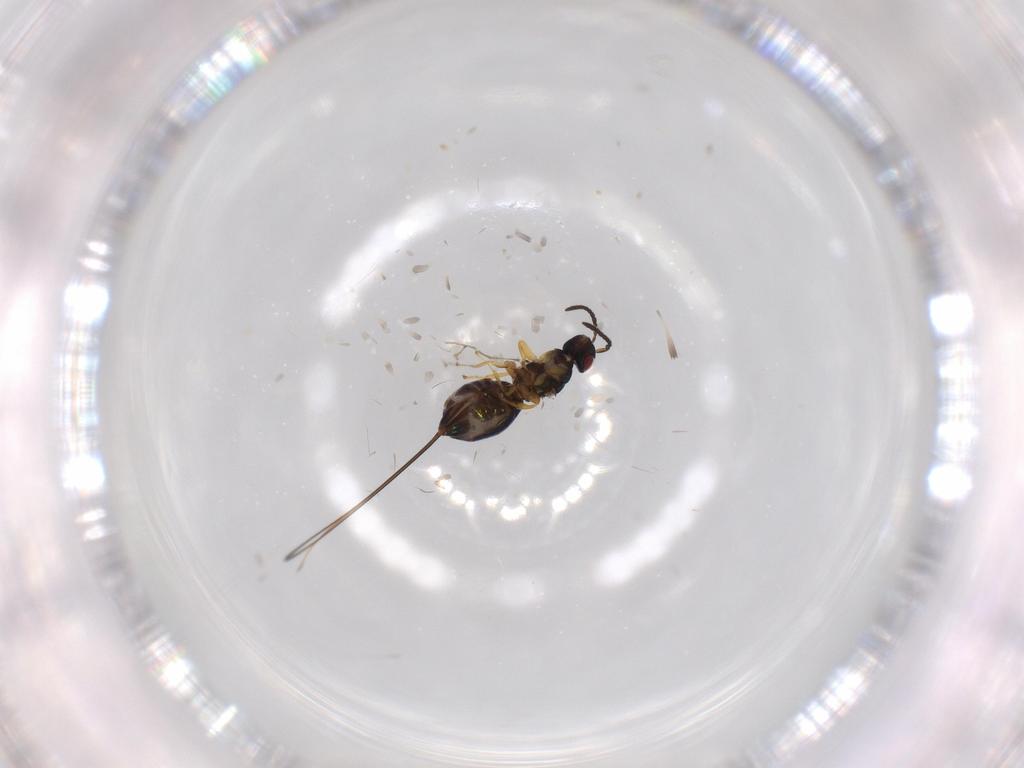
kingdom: Animalia
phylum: Arthropoda
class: Insecta
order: Hymenoptera
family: Agaonidae
